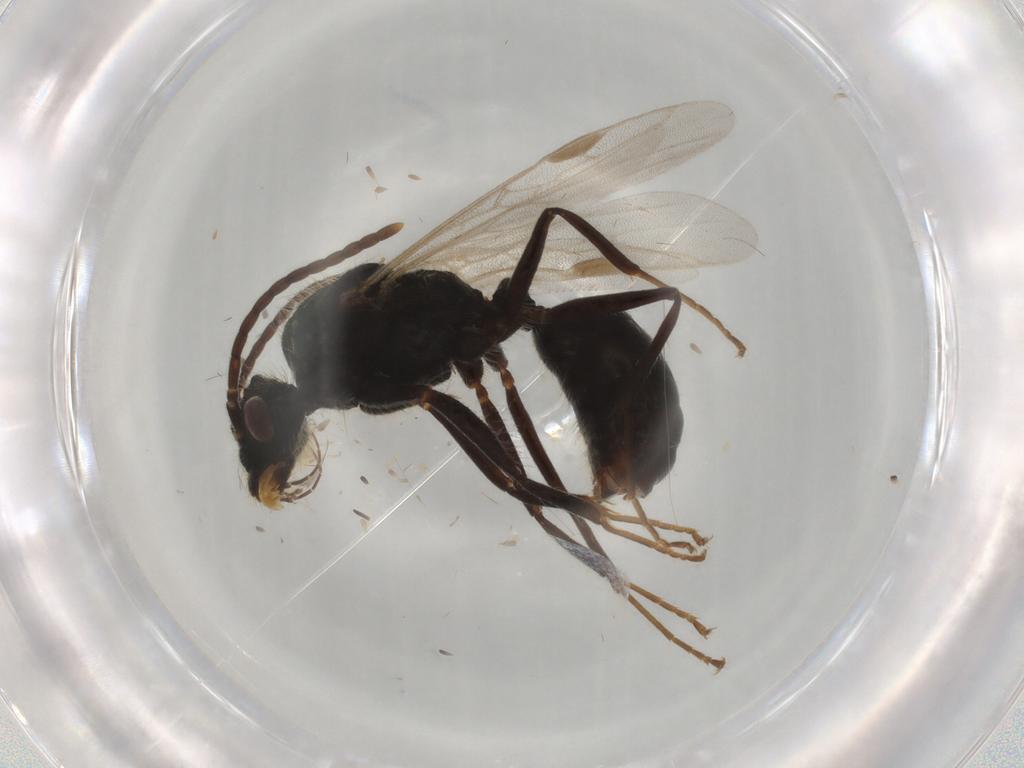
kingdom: Animalia
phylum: Arthropoda
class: Insecta
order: Hymenoptera
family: Formicidae
